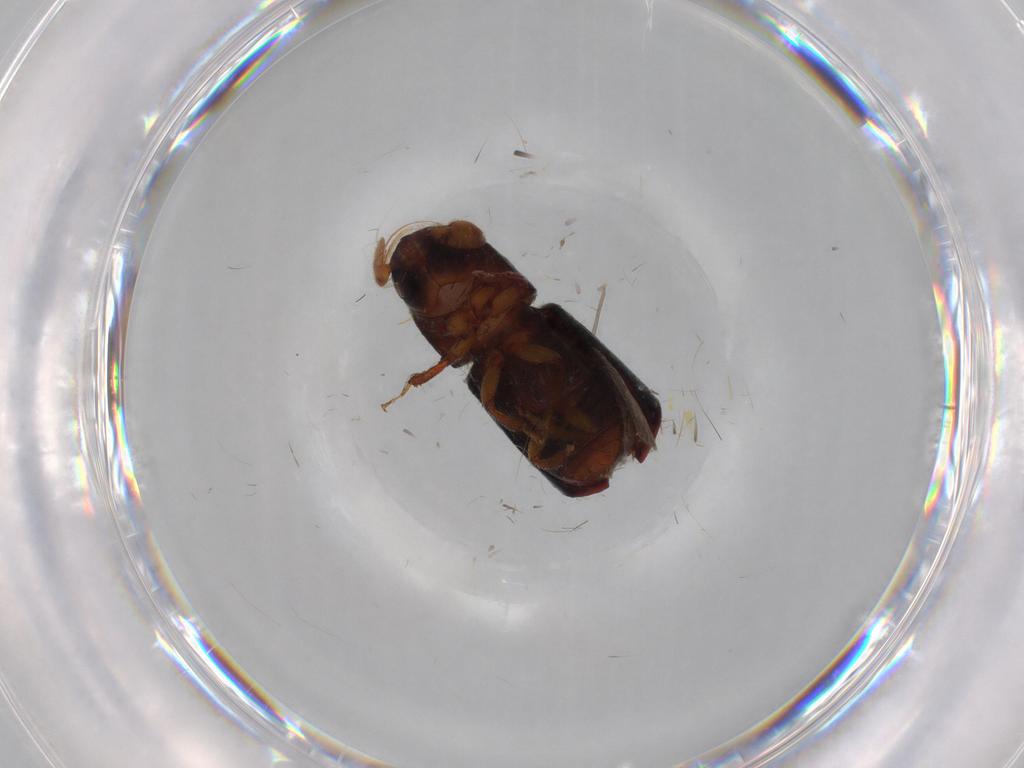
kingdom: Animalia
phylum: Arthropoda
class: Insecta
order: Coleoptera
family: Curculionidae
